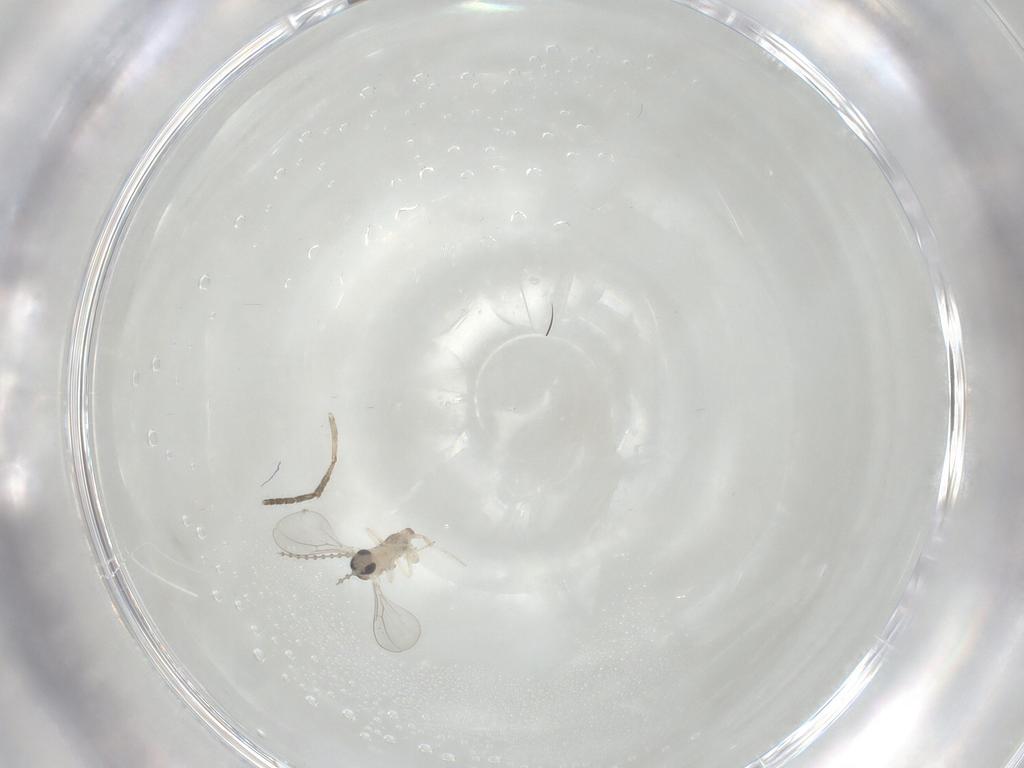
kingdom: Animalia
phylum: Arthropoda
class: Insecta
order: Diptera
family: Cecidomyiidae
